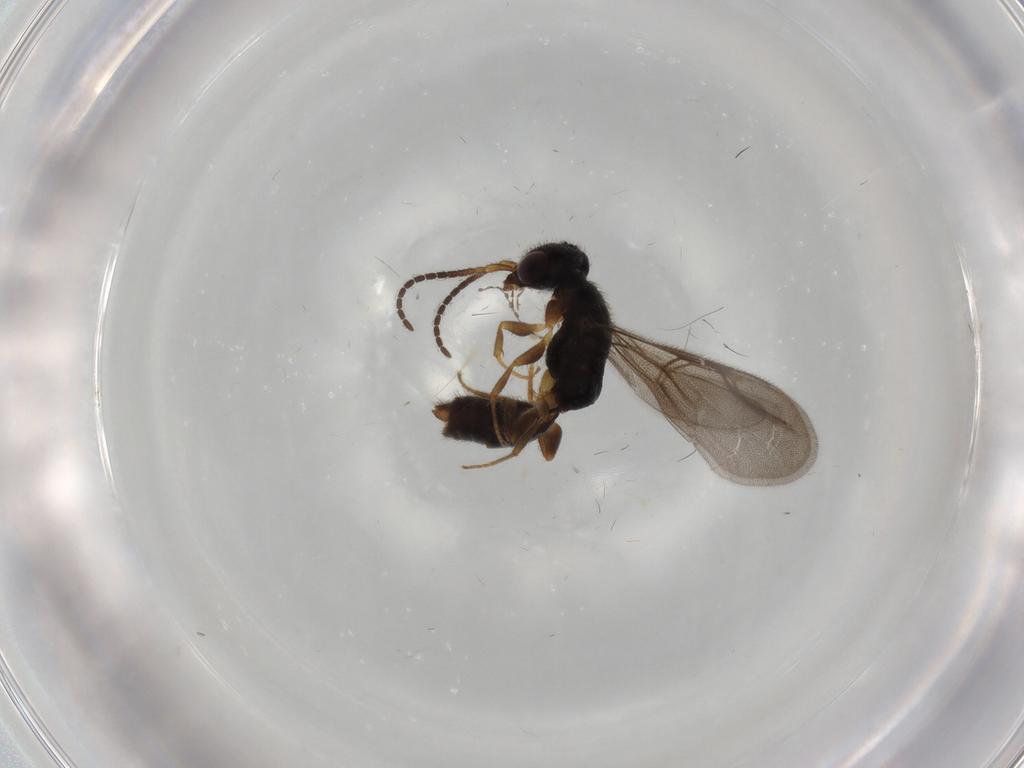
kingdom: Animalia
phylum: Arthropoda
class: Insecta
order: Hymenoptera
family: Bethylidae
